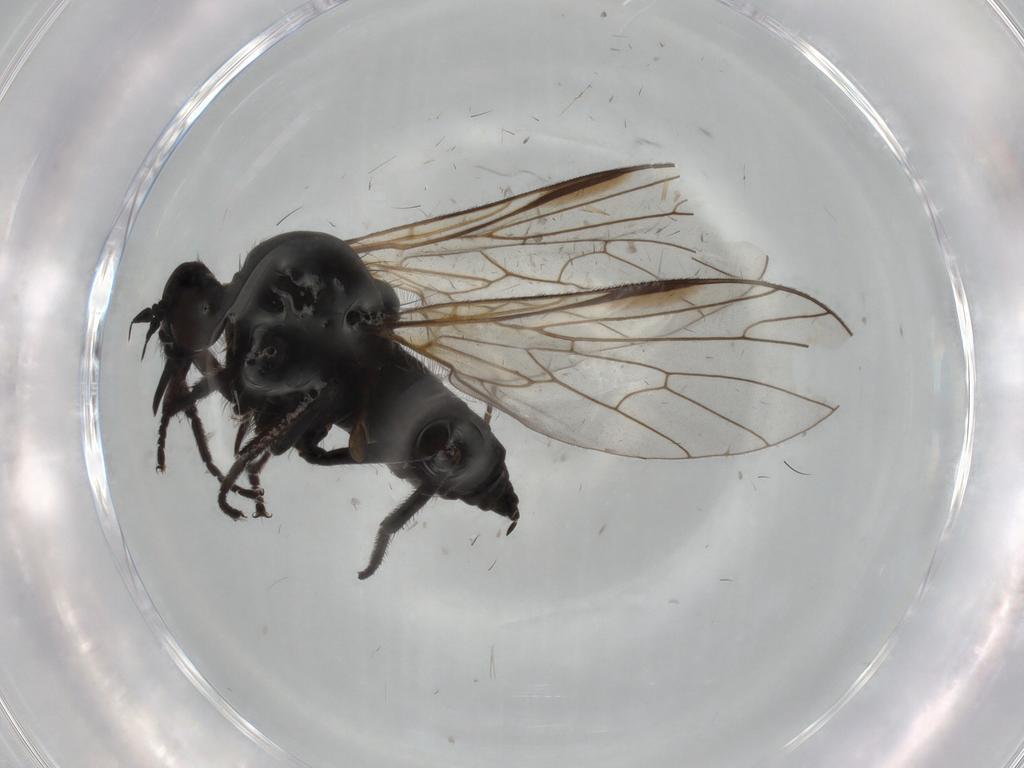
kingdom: Animalia
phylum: Arthropoda
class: Insecta
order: Diptera
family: Empididae
